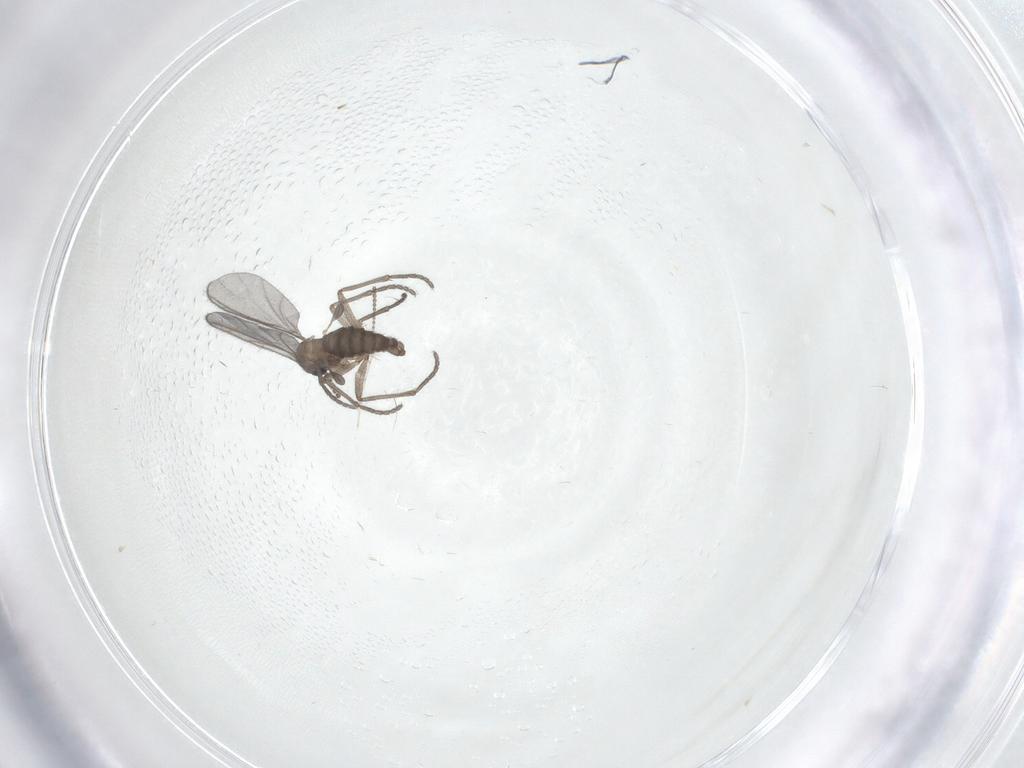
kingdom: Animalia
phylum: Arthropoda
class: Insecta
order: Diptera
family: Sciaridae
